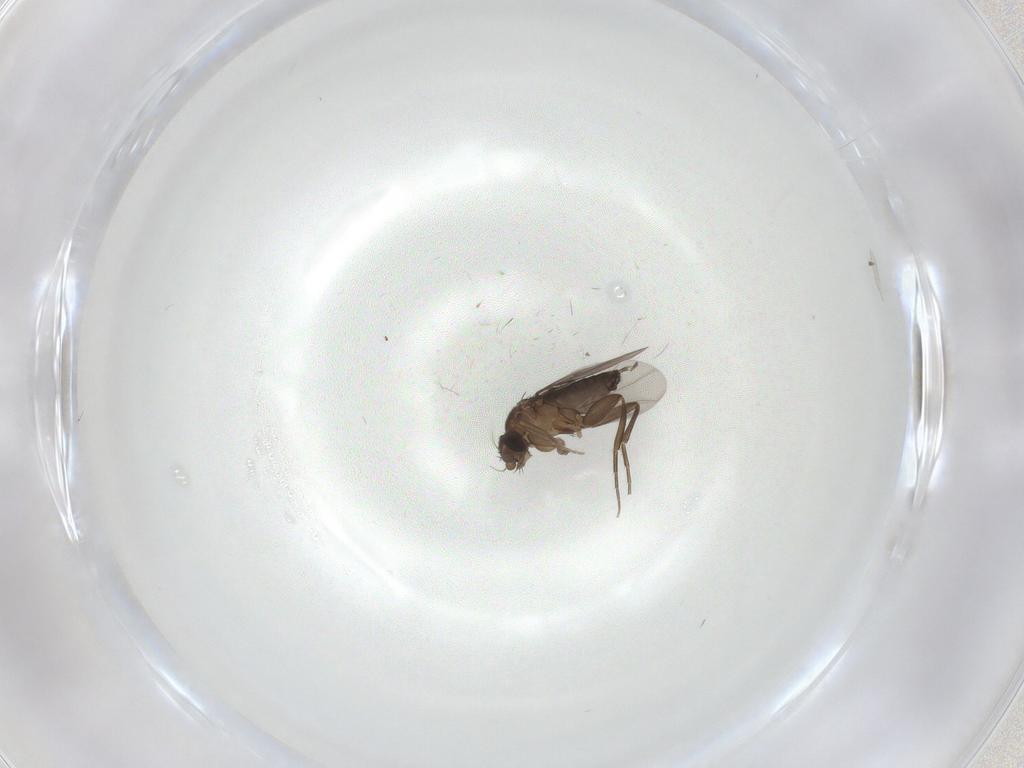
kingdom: Animalia
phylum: Arthropoda
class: Insecta
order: Diptera
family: Phoridae
